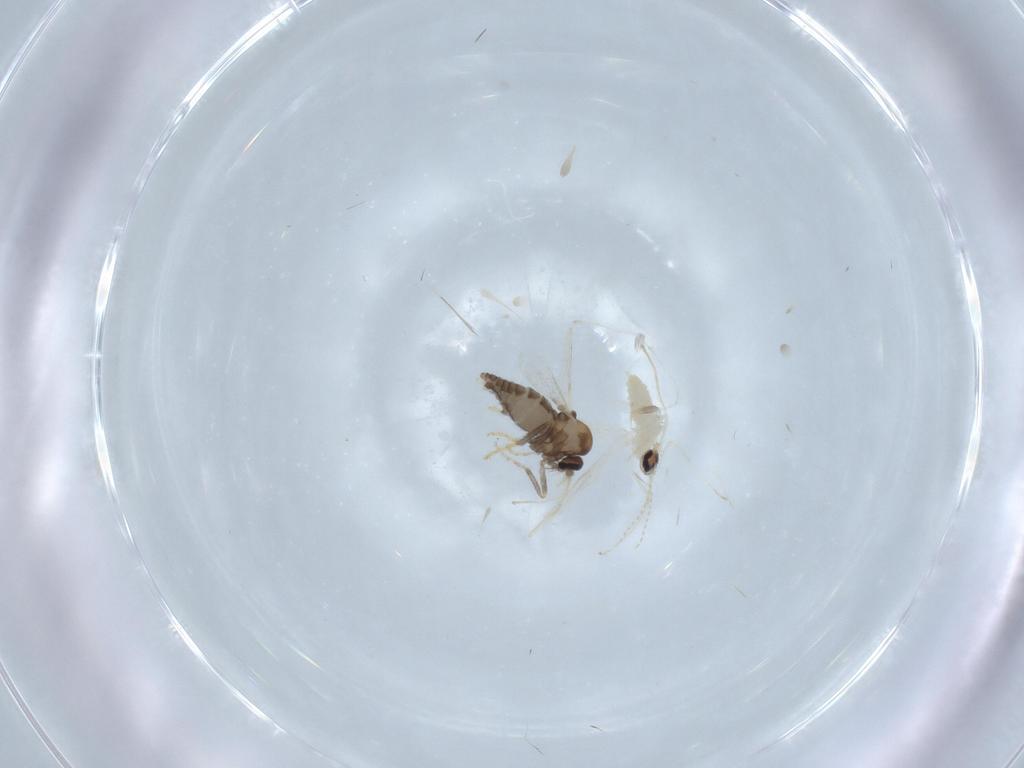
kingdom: Animalia
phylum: Arthropoda
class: Insecta
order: Diptera
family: Cecidomyiidae
